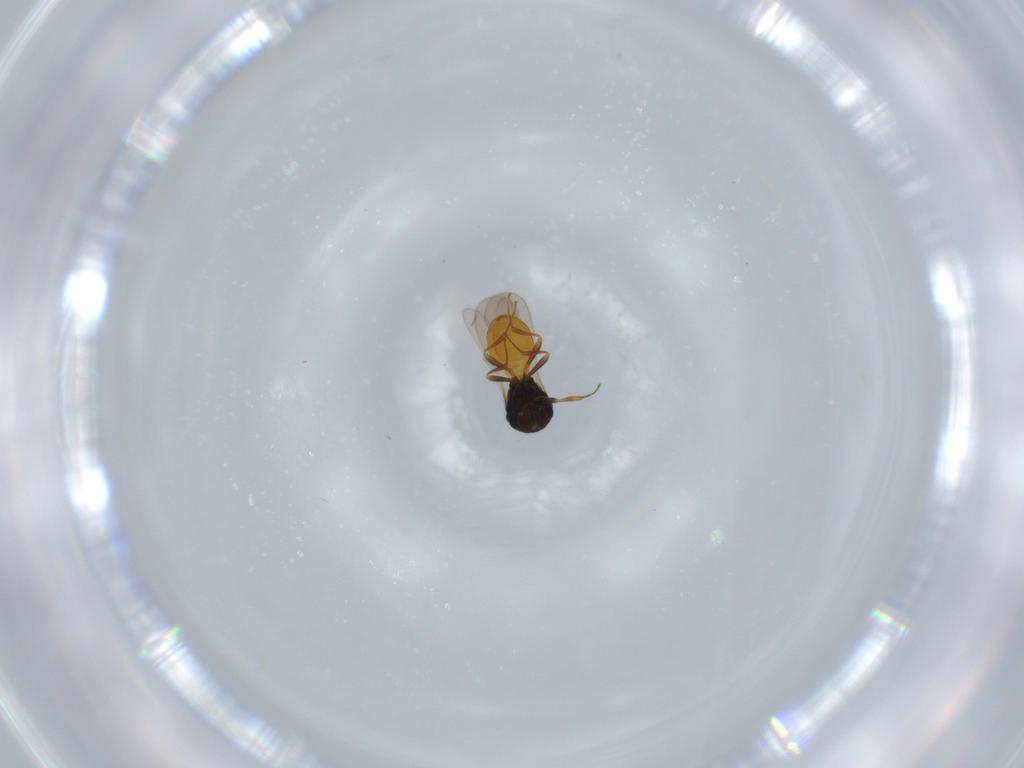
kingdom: Animalia
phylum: Arthropoda
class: Insecta
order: Hymenoptera
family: Scelionidae
